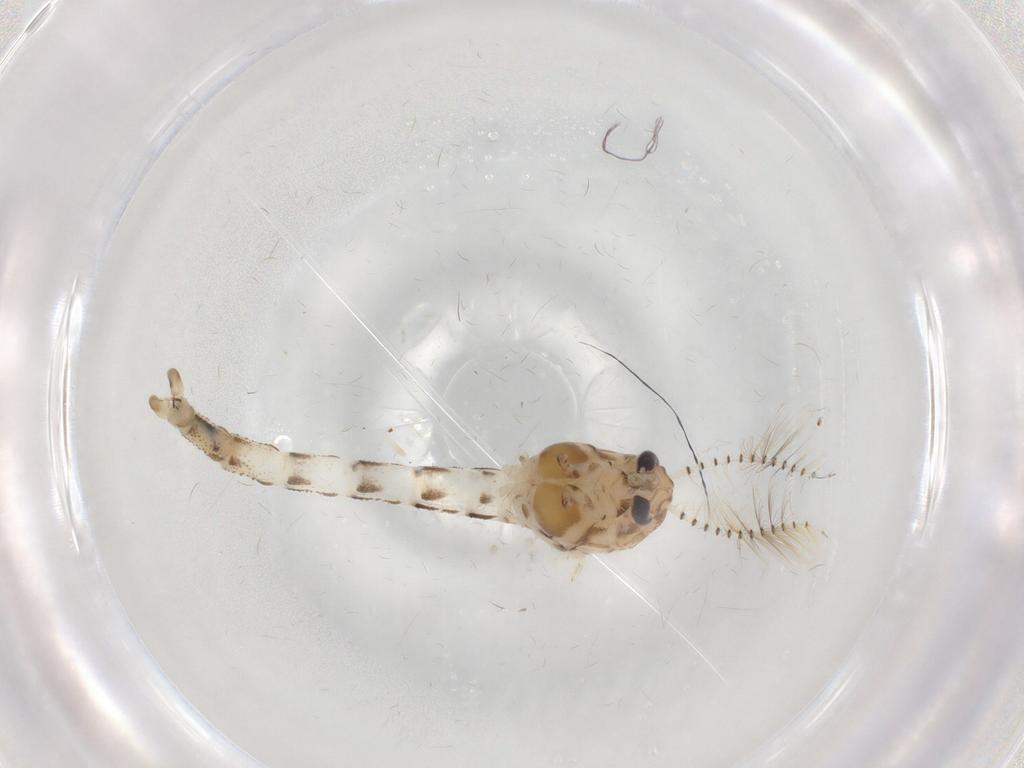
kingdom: Animalia
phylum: Arthropoda
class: Insecta
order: Diptera
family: Chaoboridae
